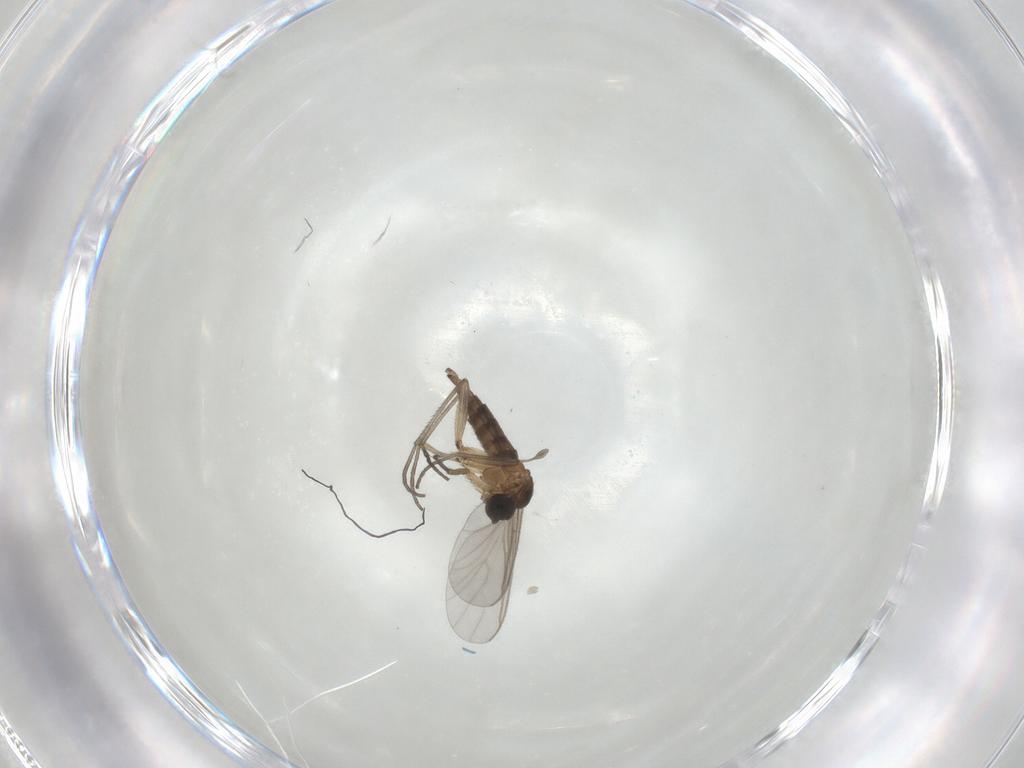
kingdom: Animalia
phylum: Arthropoda
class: Insecta
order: Diptera
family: Sciaridae
